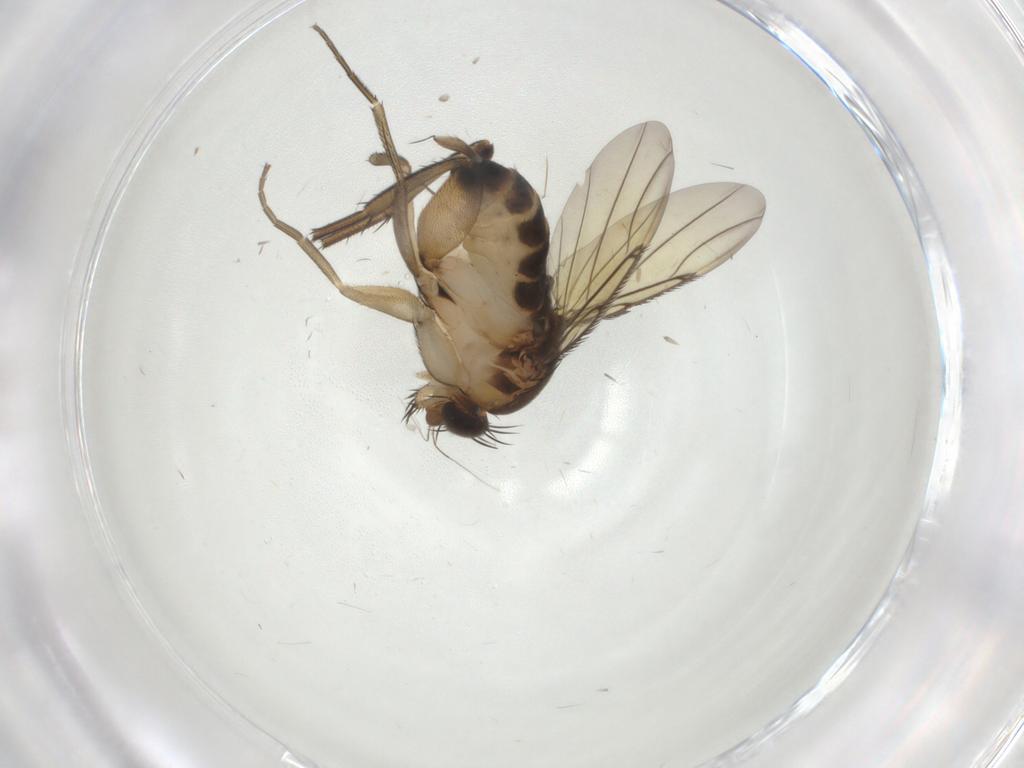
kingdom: Animalia
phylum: Arthropoda
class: Insecta
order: Diptera
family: Phoridae
